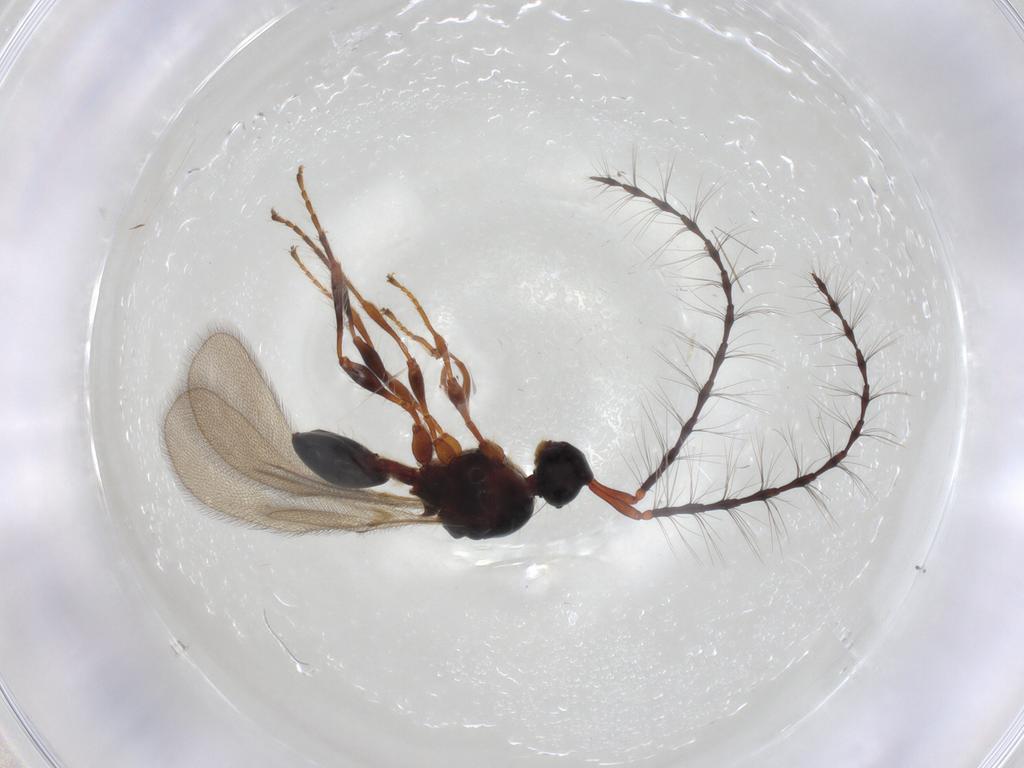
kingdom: Animalia
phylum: Arthropoda
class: Insecta
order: Hymenoptera
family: Diapriidae
